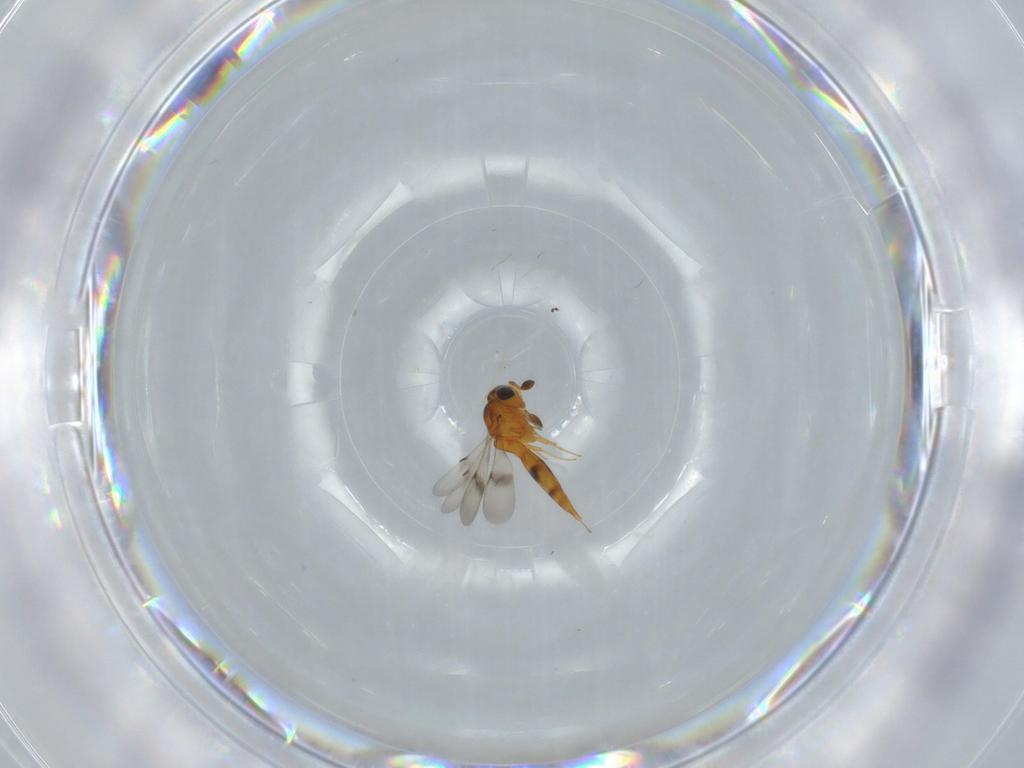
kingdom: Animalia
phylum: Arthropoda
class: Insecta
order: Hymenoptera
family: Scelionidae
